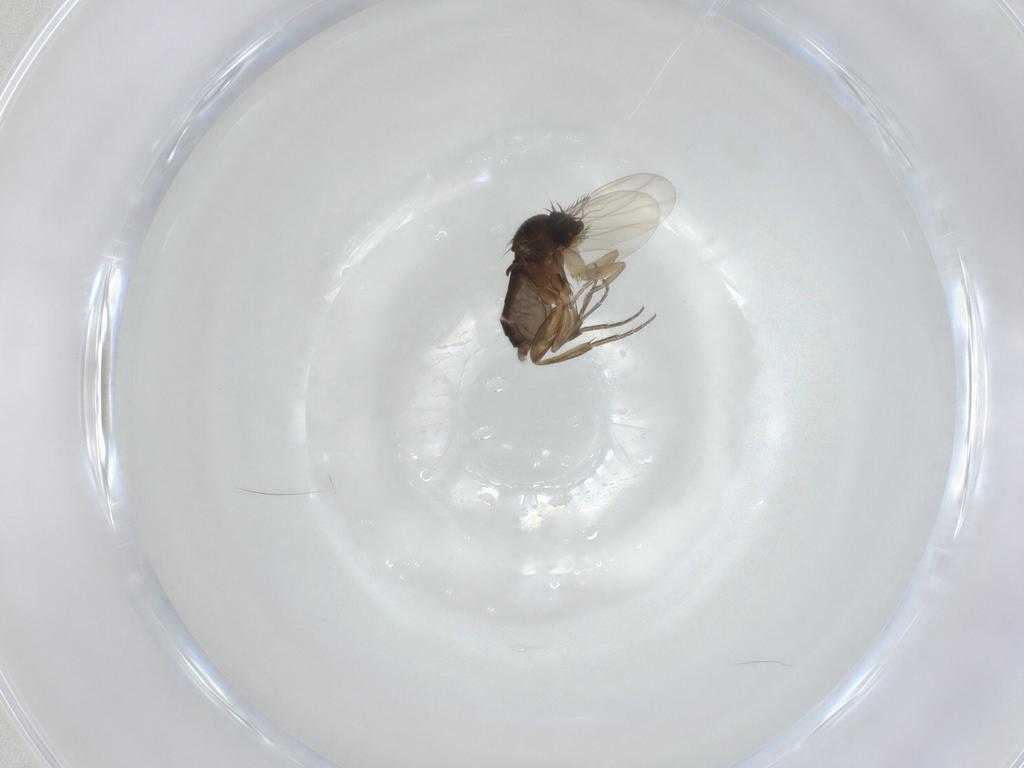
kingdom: Animalia
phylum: Arthropoda
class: Insecta
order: Diptera
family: Phoridae
